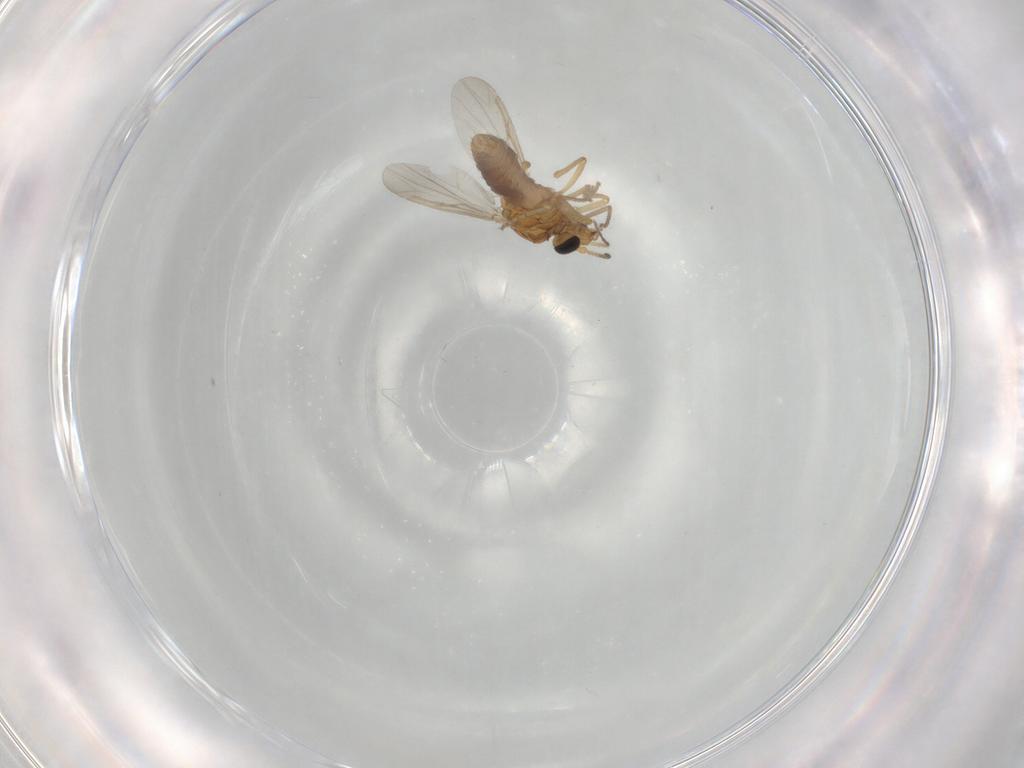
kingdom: Animalia
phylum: Arthropoda
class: Insecta
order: Diptera
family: Ceratopogonidae
